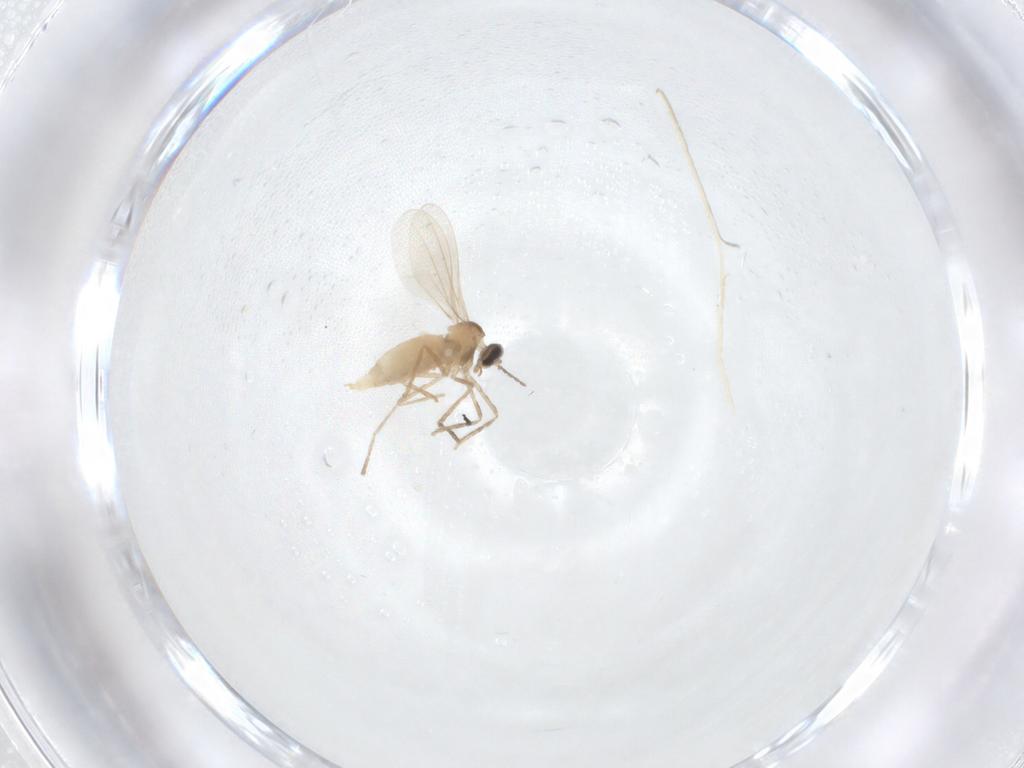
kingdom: Animalia
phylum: Arthropoda
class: Insecta
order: Diptera
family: Cecidomyiidae
